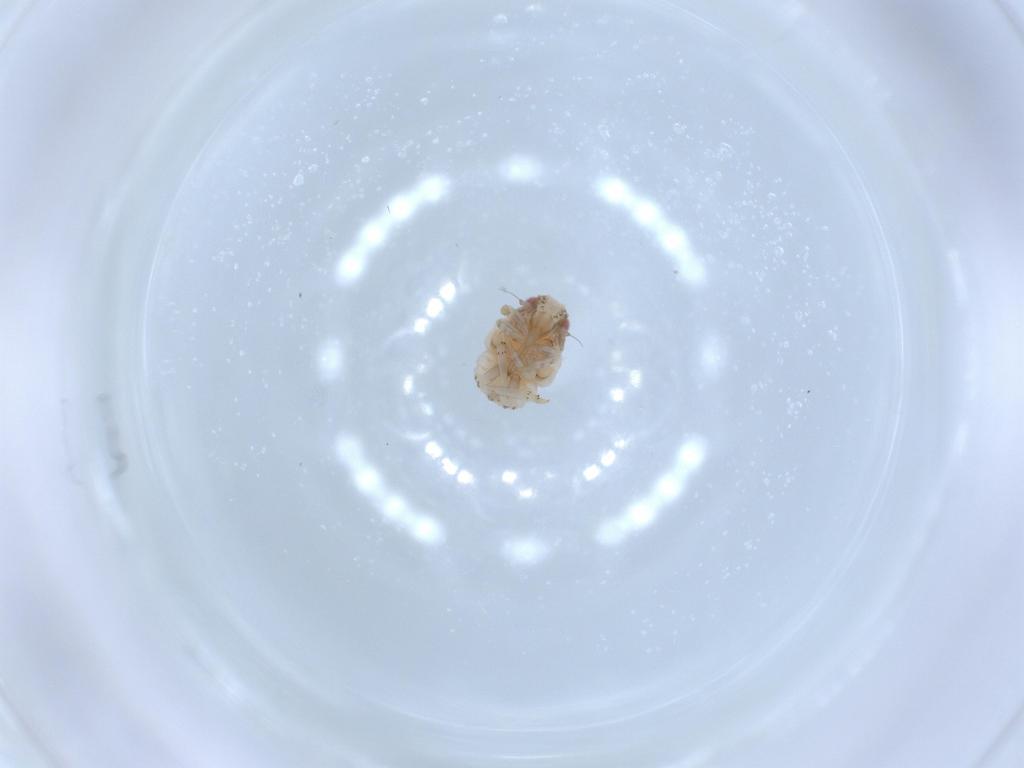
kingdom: Animalia
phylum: Arthropoda
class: Insecta
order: Hemiptera
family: Acanaloniidae
